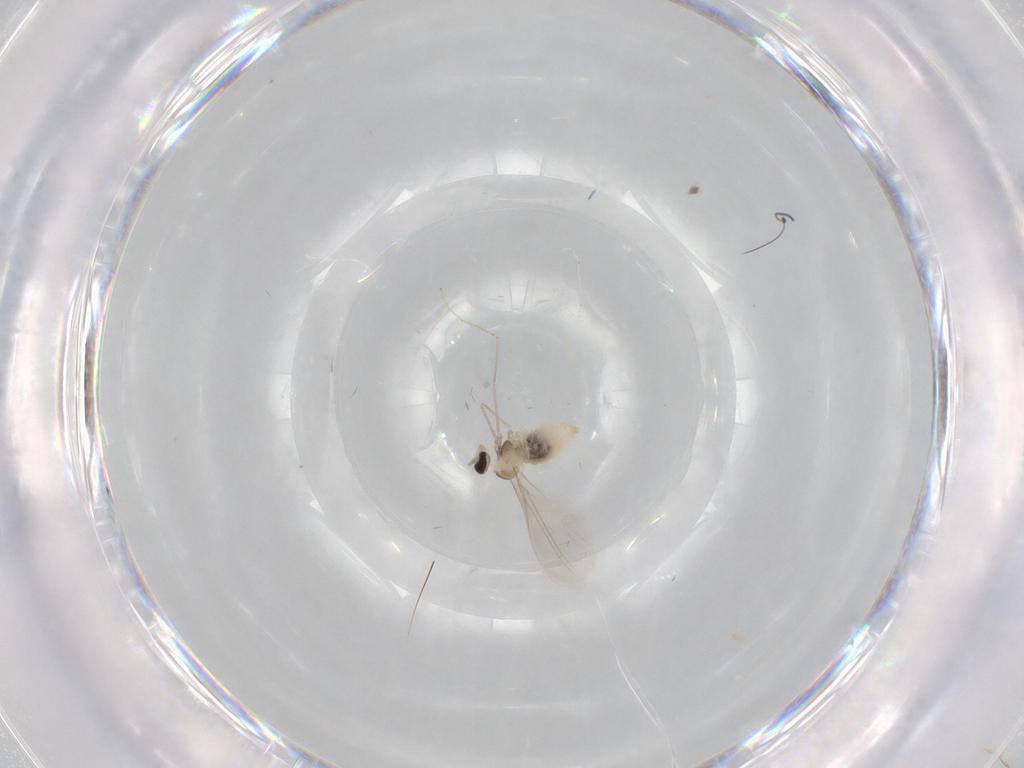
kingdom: Animalia
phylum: Arthropoda
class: Insecta
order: Diptera
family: Cecidomyiidae
